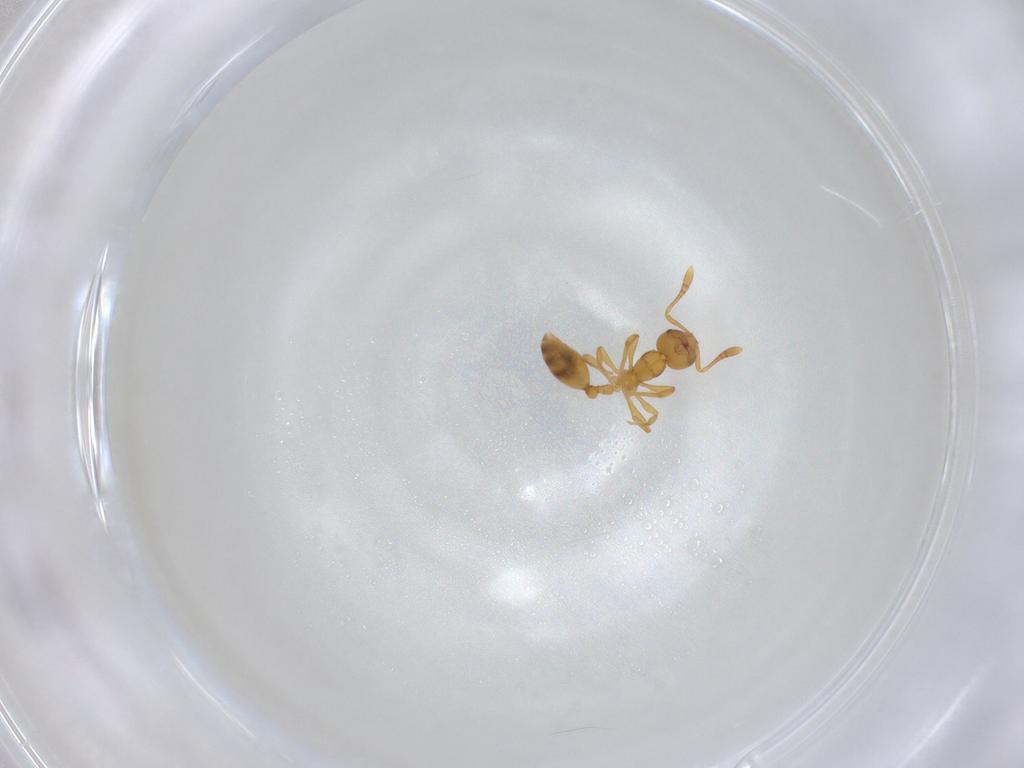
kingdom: Animalia
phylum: Arthropoda
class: Insecta
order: Hymenoptera
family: Formicidae
